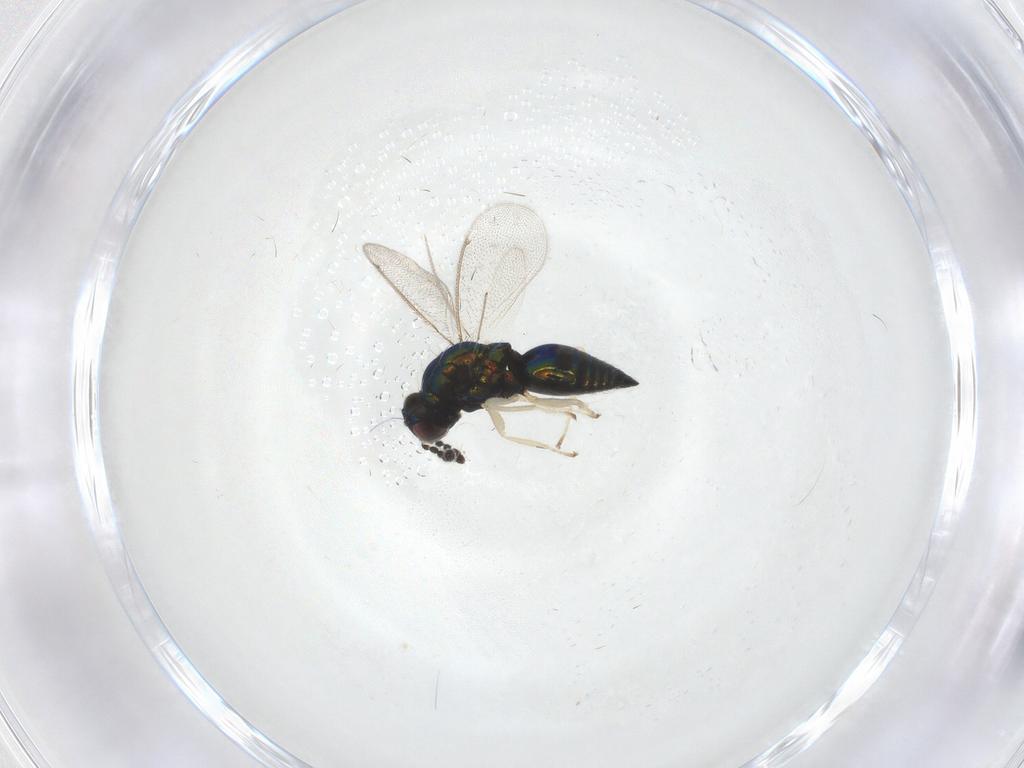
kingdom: Animalia
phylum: Arthropoda
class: Insecta
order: Hymenoptera
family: Eulophidae
